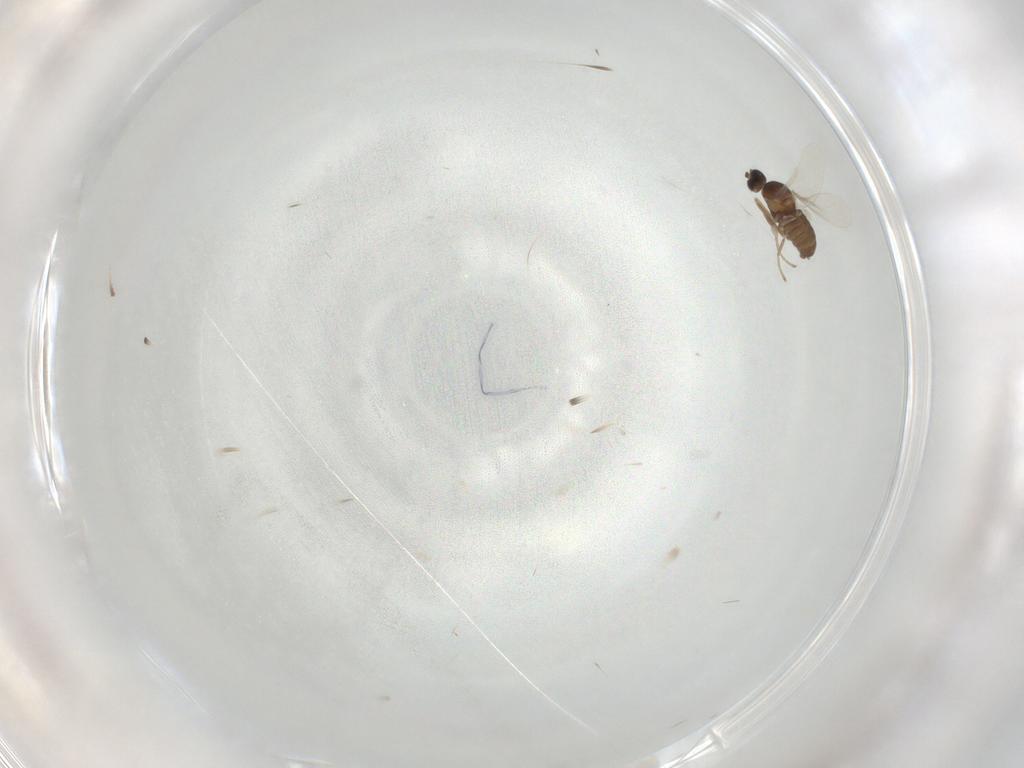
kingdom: Animalia
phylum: Arthropoda
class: Insecta
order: Diptera
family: Cecidomyiidae
